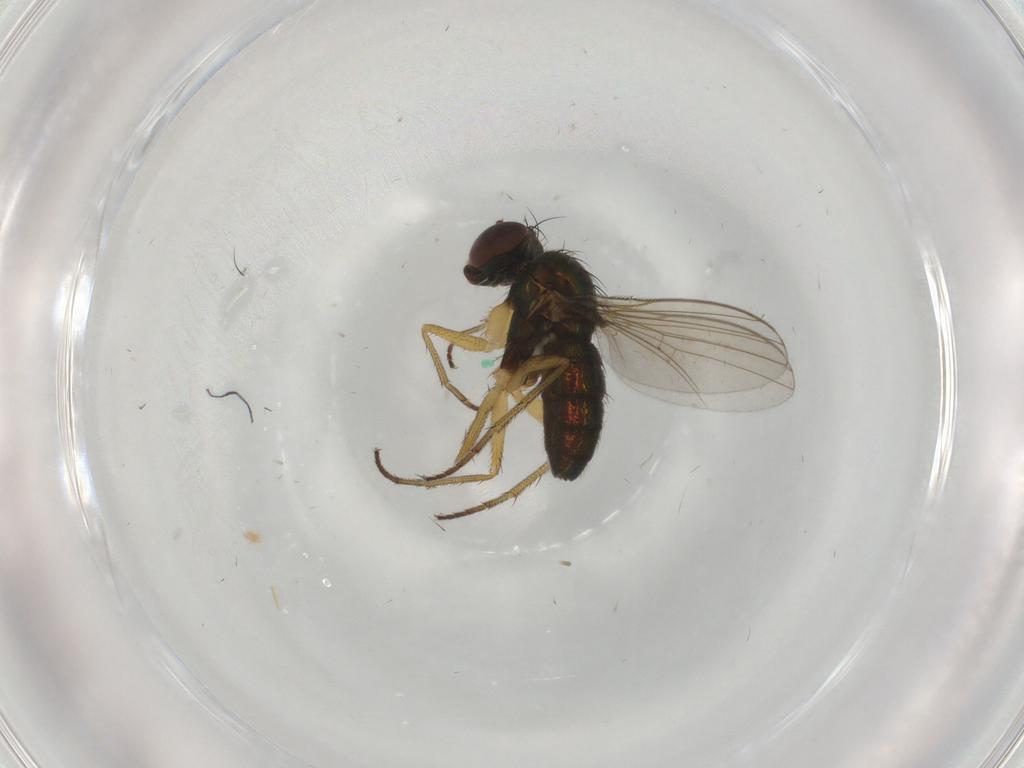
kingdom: Animalia
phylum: Arthropoda
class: Insecta
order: Diptera
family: Dolichopodidae
